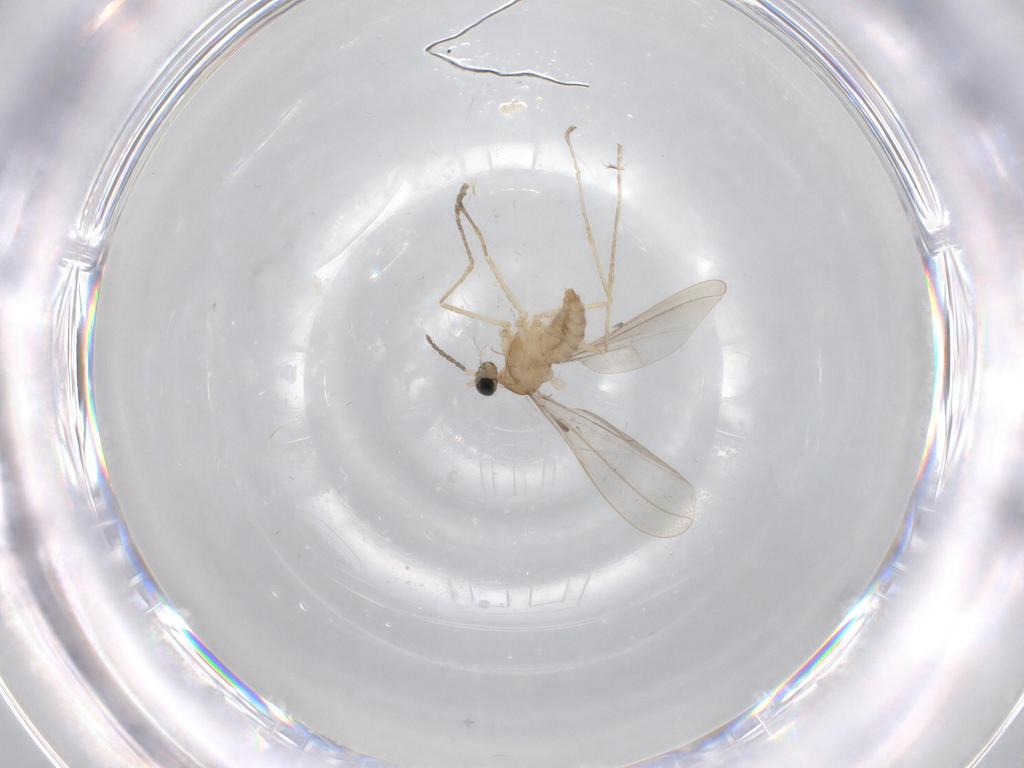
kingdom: Animalia
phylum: Arthropoda
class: Insecta
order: Diptera
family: Cecidomyiidae
